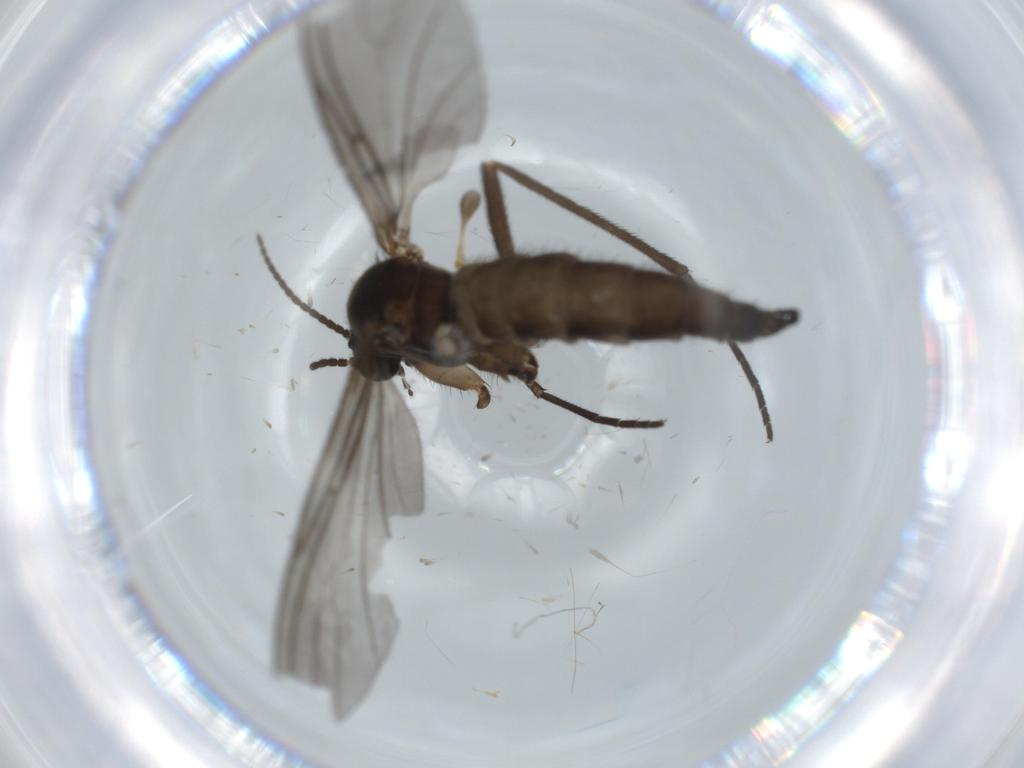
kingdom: Animalia
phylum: Arthropoda
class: Insecta
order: Diptera
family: Sciaridae
